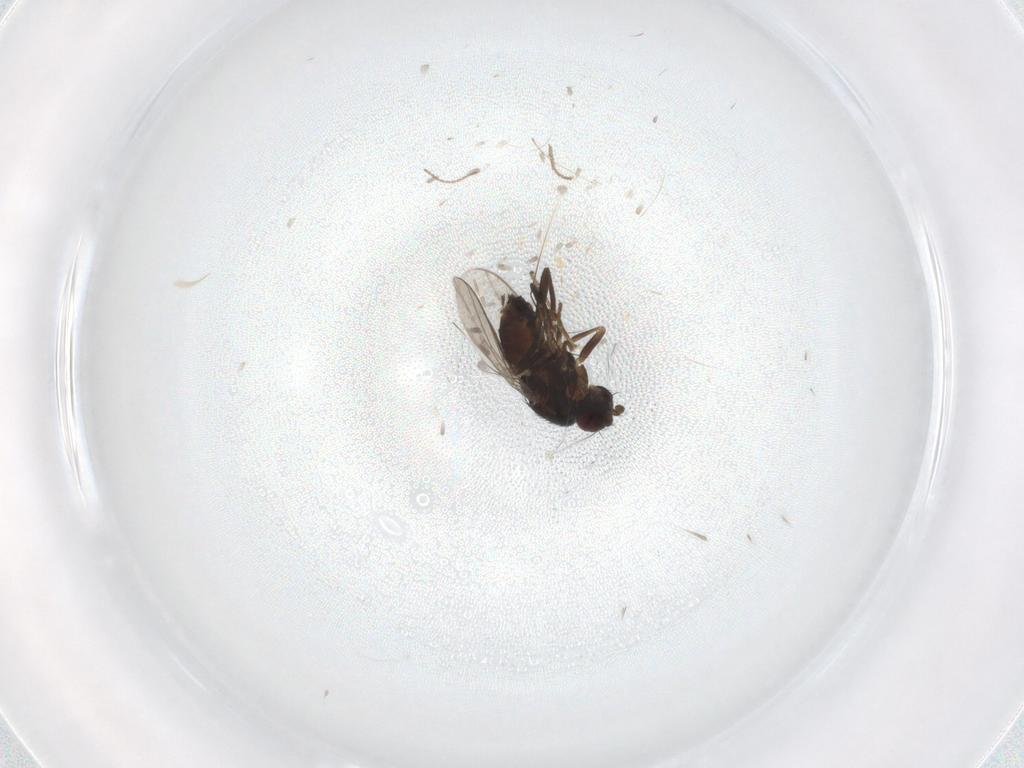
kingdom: Animalia
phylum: Arthropoda
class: Insecta
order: Diptera
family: Sphaeroceridae
